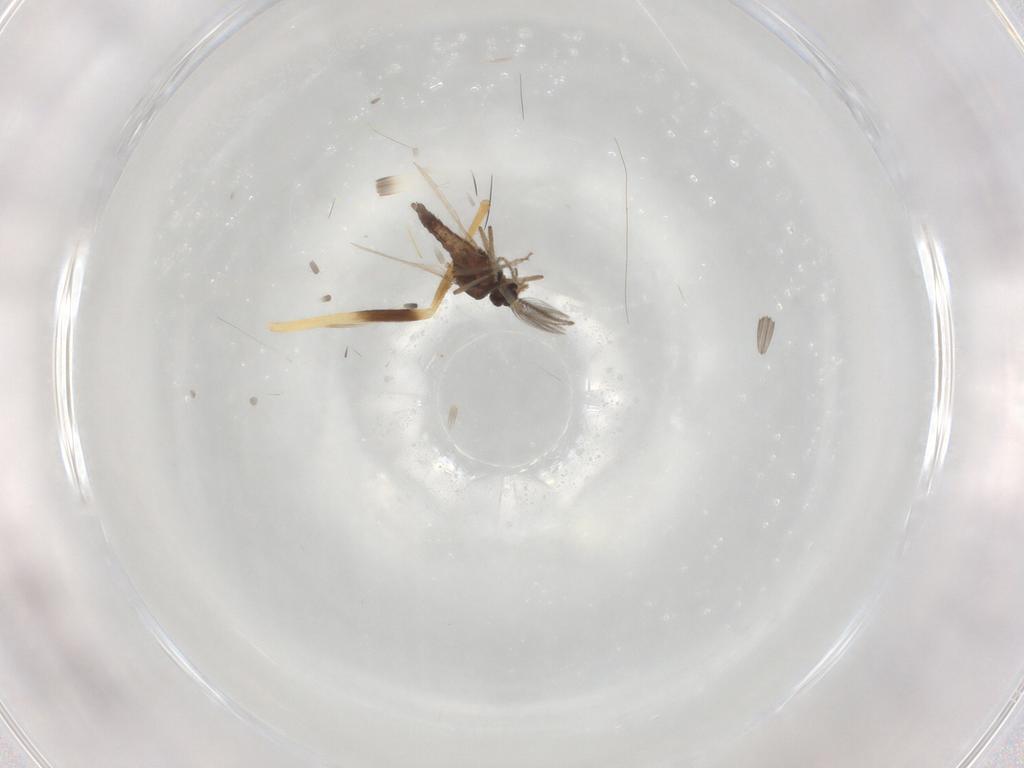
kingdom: Animalia
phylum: Arthropoda
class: Insecta
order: Diptera
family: Ceratopogonidae
